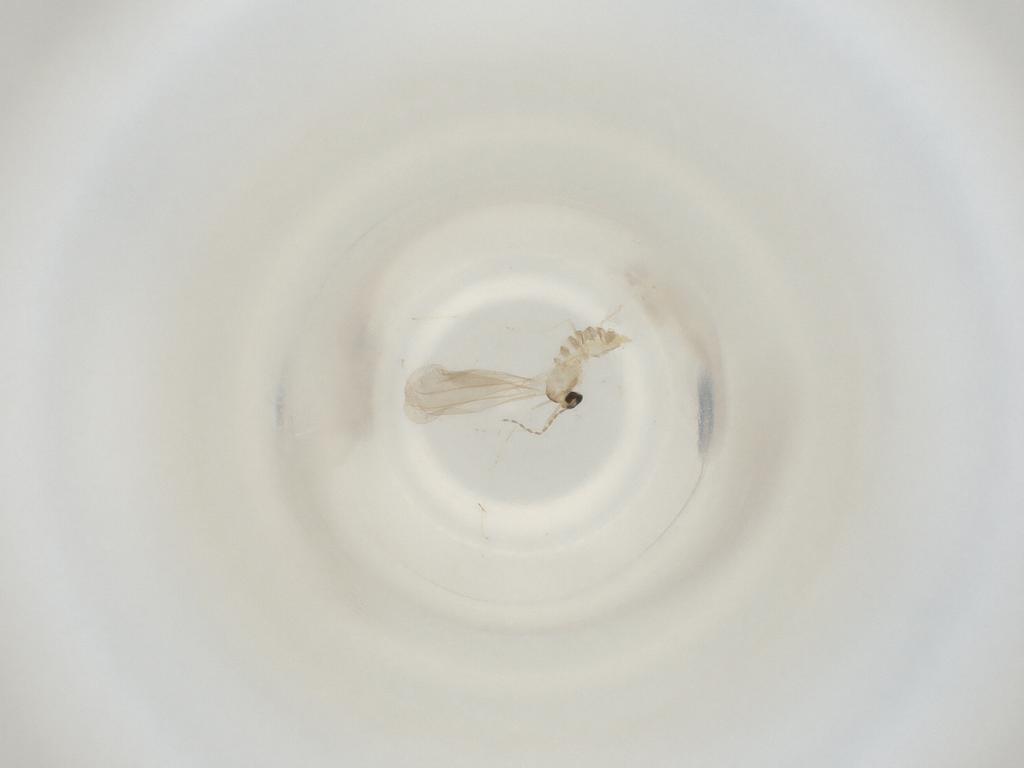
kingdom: Animalia
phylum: Arthropoda
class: Insecta
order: Diptera
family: Cecidomyiidae
